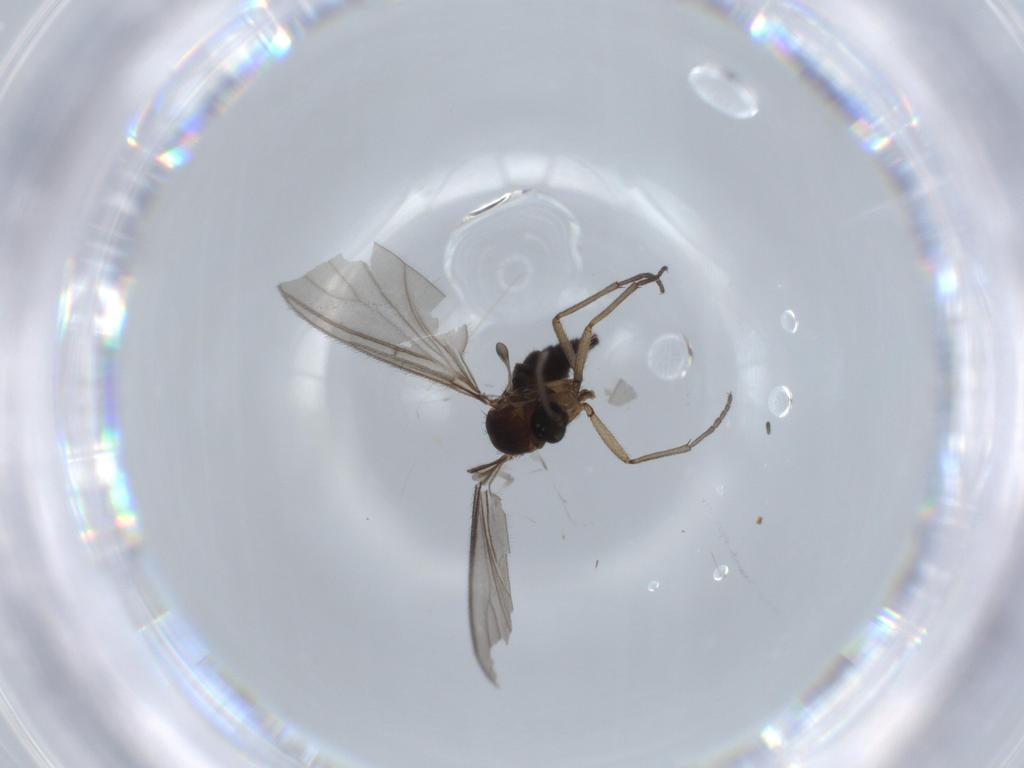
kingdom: Animalia
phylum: Arthropoda
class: Insecta
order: Diptera
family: Sciaridae
